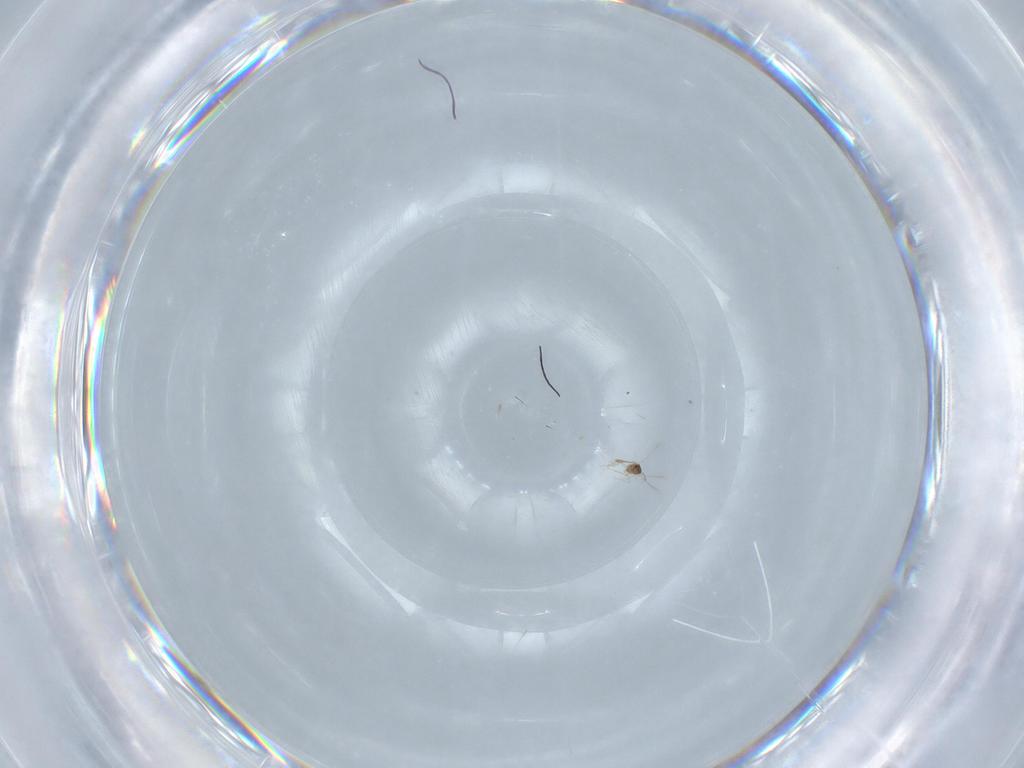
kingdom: Animalia
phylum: Arthropoda
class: Insecta
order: Hymenoptera
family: Mymaridae
